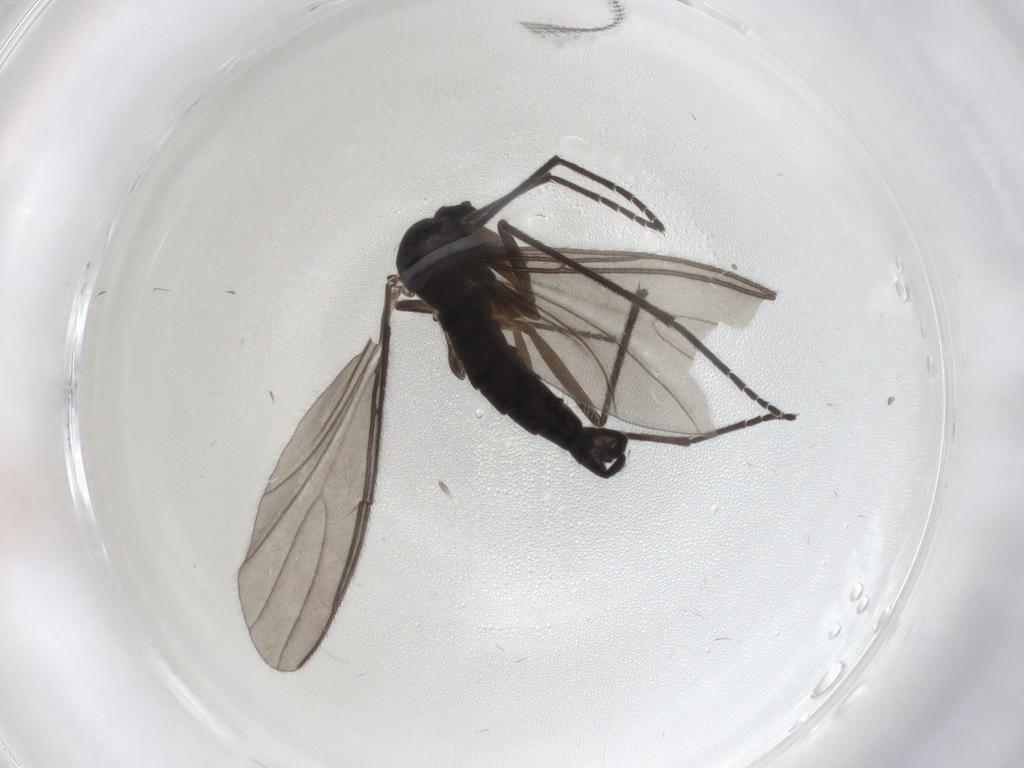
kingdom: Animalia
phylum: Arthropoda
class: Insecta
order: Diptera
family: Sciaridae
